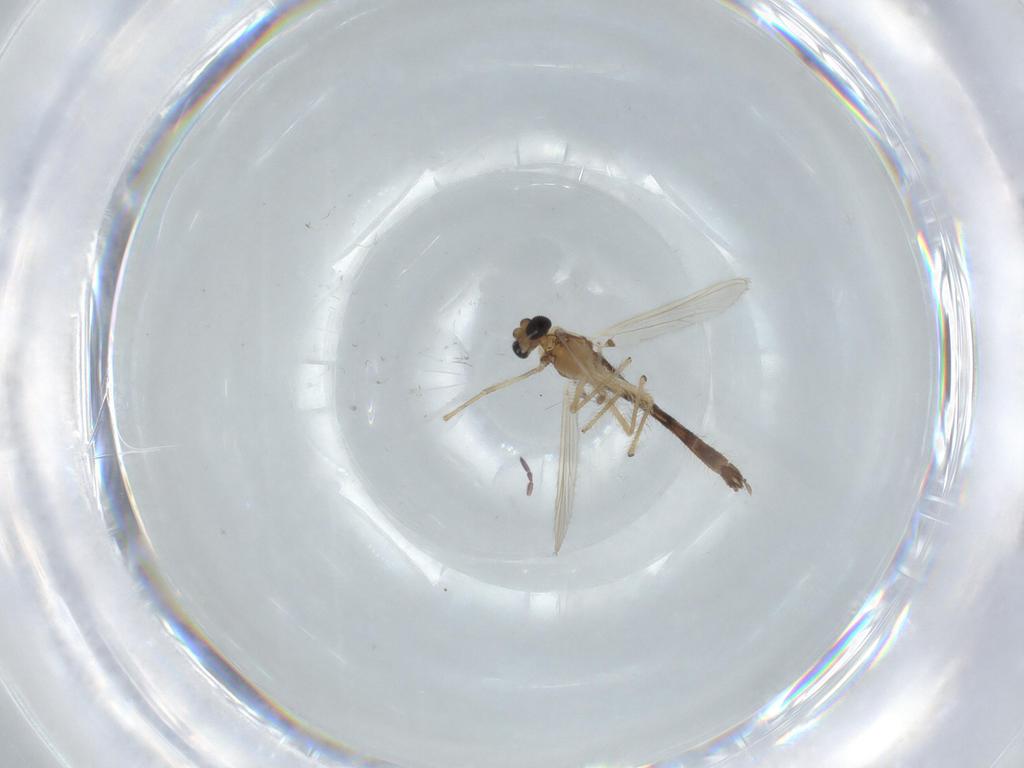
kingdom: Animalia
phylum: Arthropoda
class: Insecta
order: Diptera
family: Chironomidae
